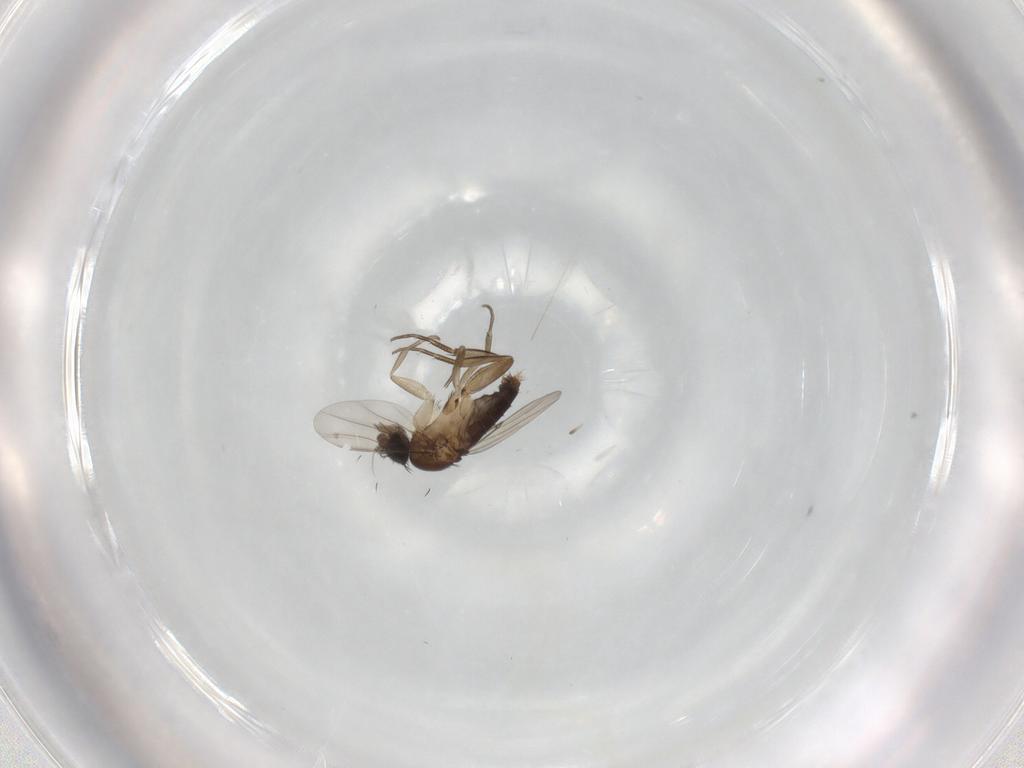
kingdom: Animalia
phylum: Arthropoda
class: Insecta
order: Diptera
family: Phoridae
